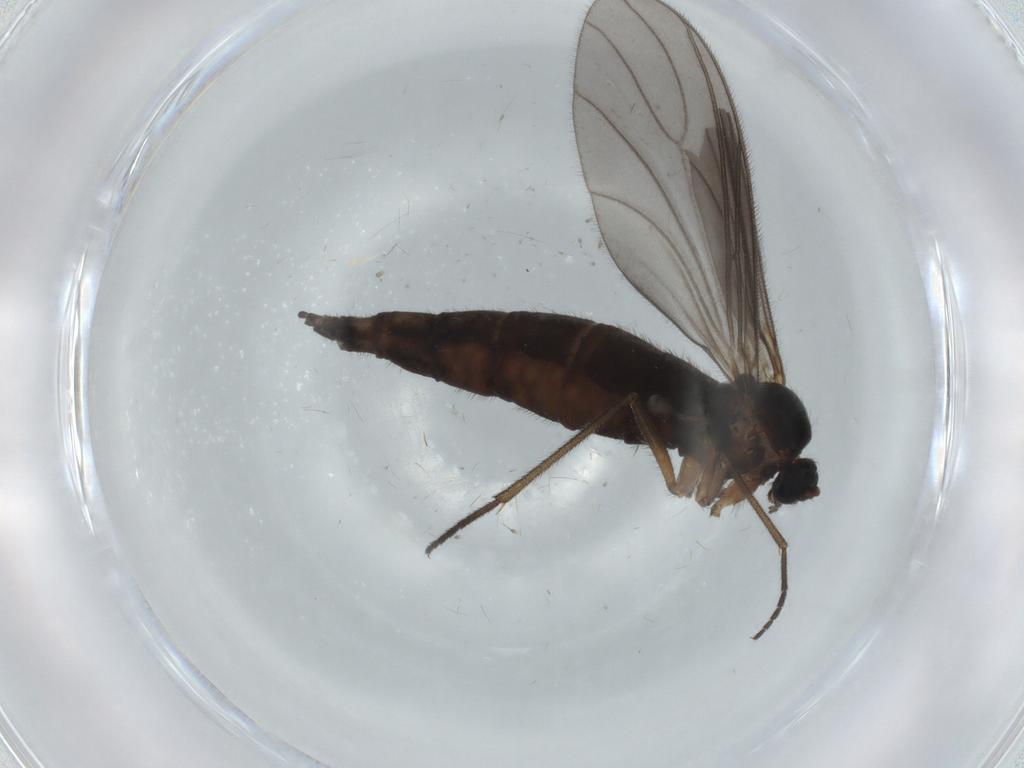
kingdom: Animalia
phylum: Arthropoda
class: Insecta
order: Diptera
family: Sciaridae
